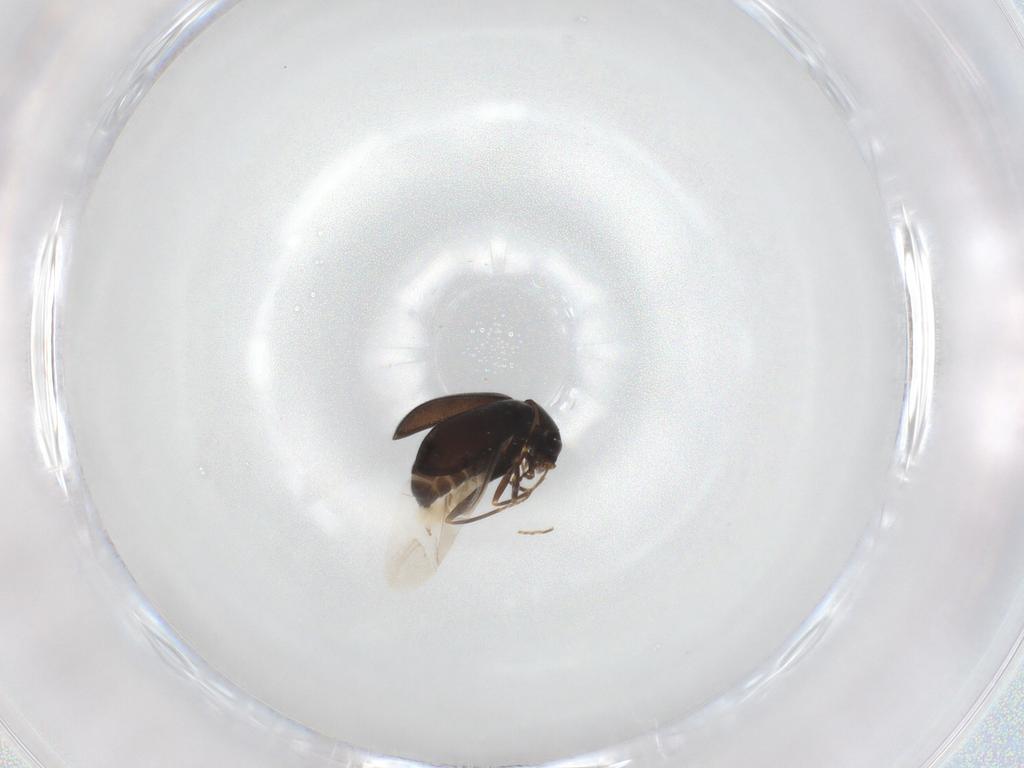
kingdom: Animalia
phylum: Arthropoda
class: Insecta
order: Coleoptera
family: Melyridae
